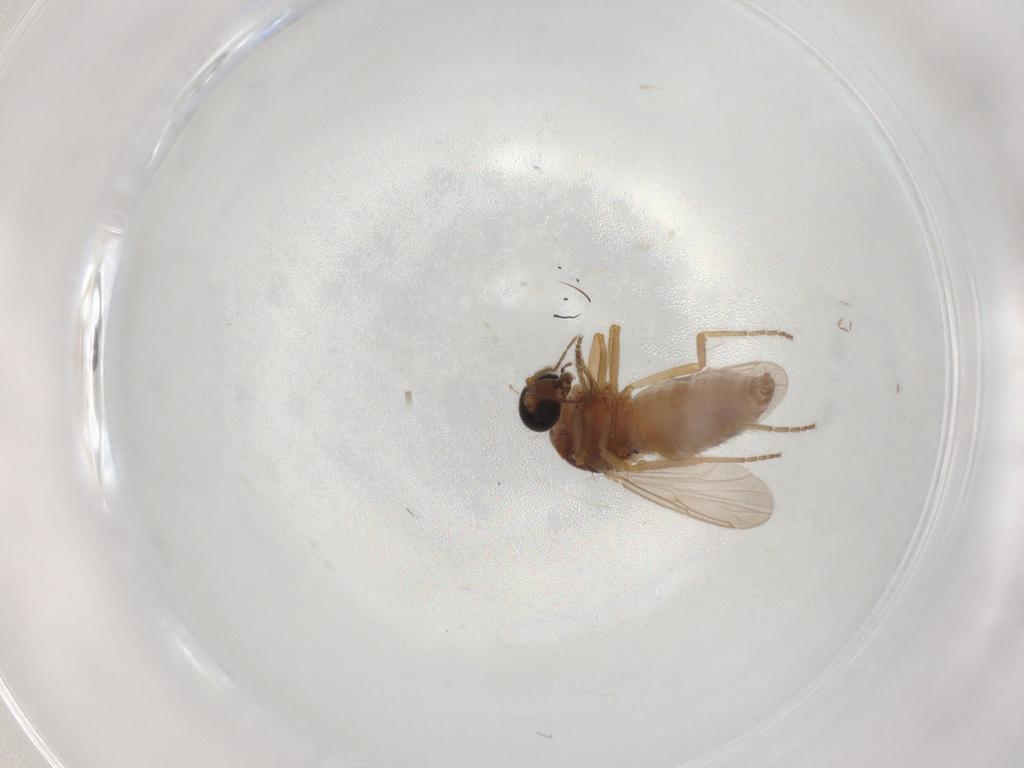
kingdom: Animalia
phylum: Arthropoda
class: Insecta
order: Diptera
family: Ceratopogonidae
